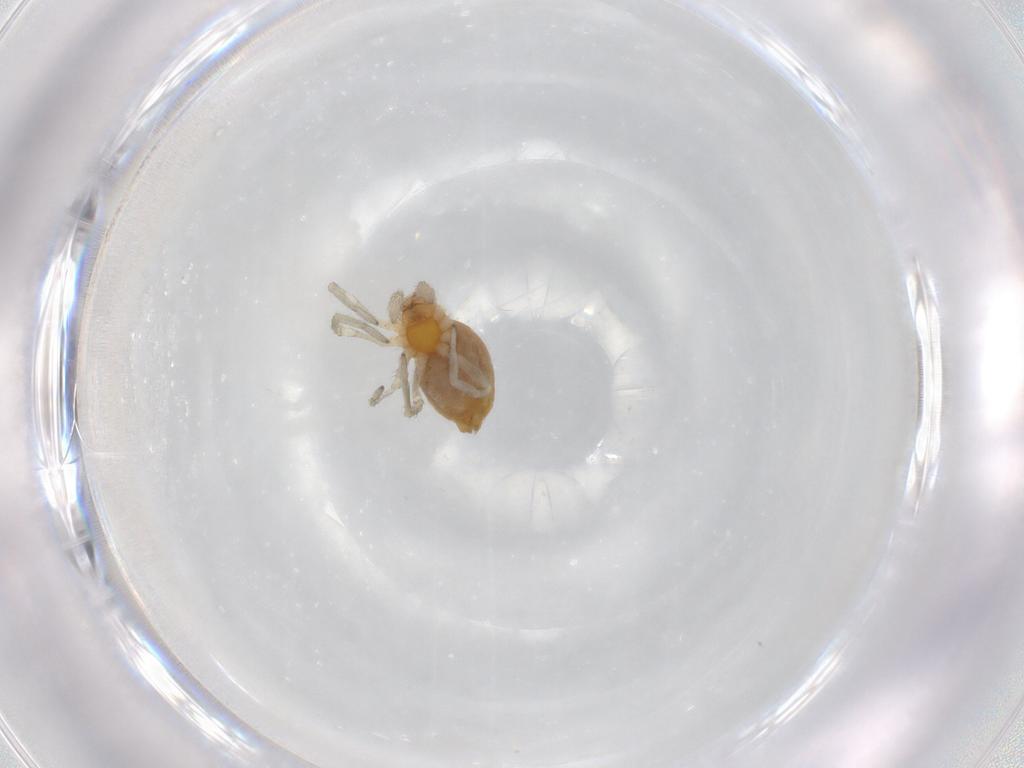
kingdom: Animalia
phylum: Arthropoda
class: Arachnida
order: Araneae
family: Dictynidae
